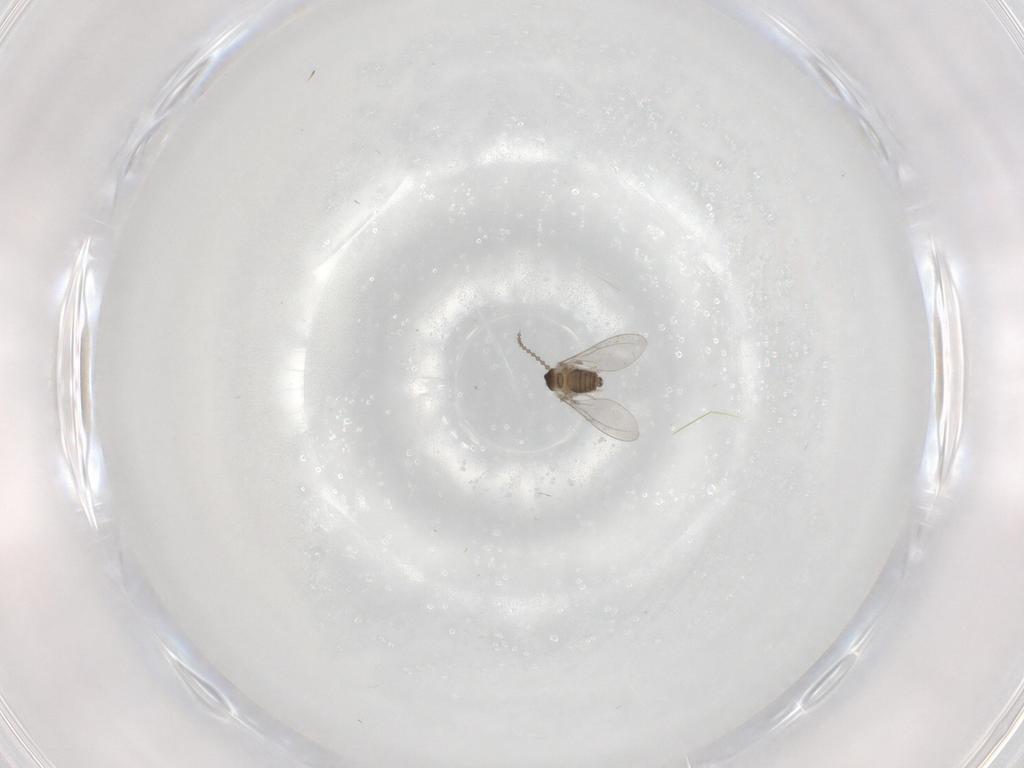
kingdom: Animalia
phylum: Arthropoda
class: Insecta
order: Diptera
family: Cecidomyiidae
